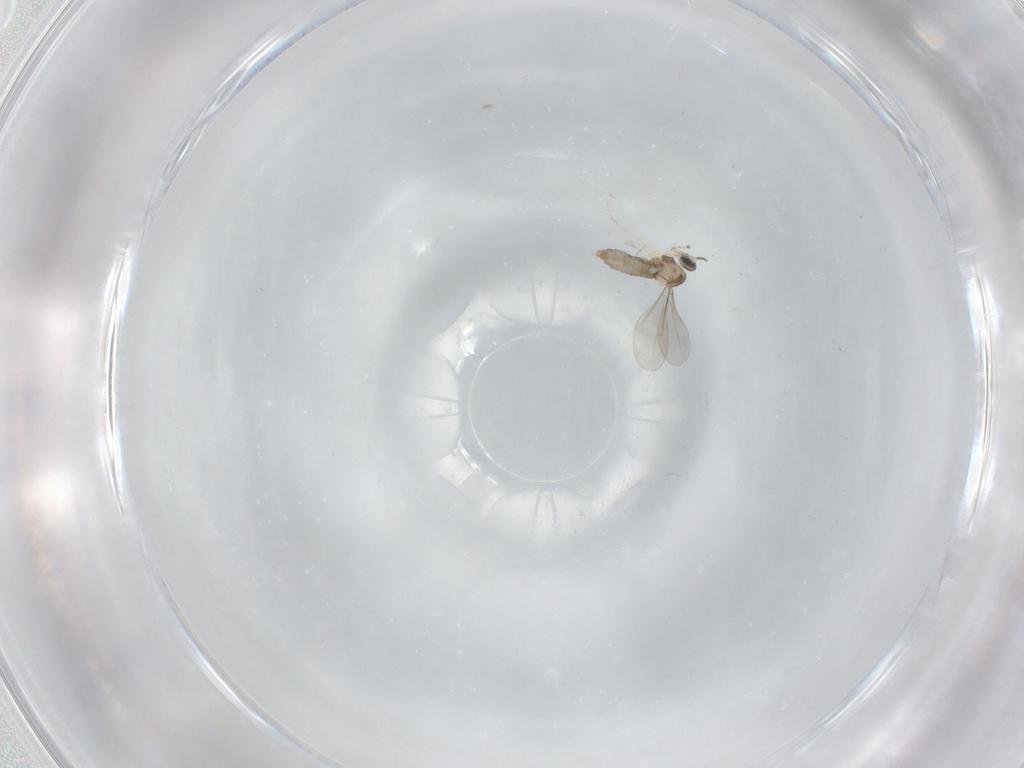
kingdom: Animalia
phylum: Arthropoda
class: Insecta
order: Diptera
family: Cecidomyiidae
